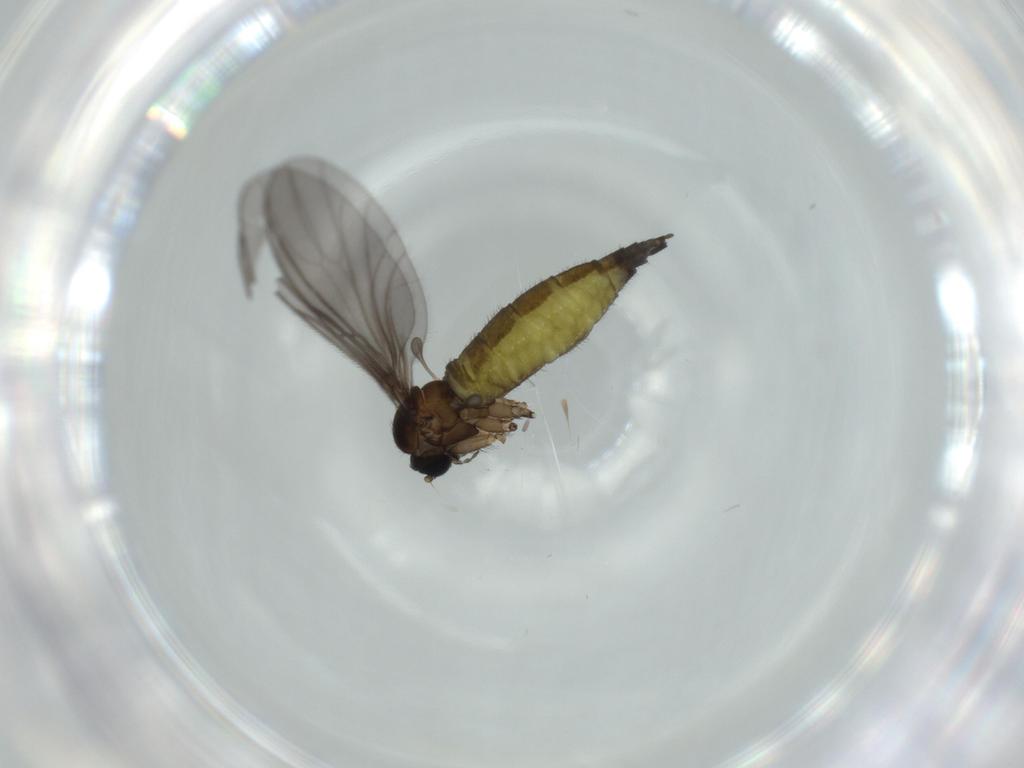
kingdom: Animalia
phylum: Arthropoda
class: Insecta
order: Diptera
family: Sciaridae
